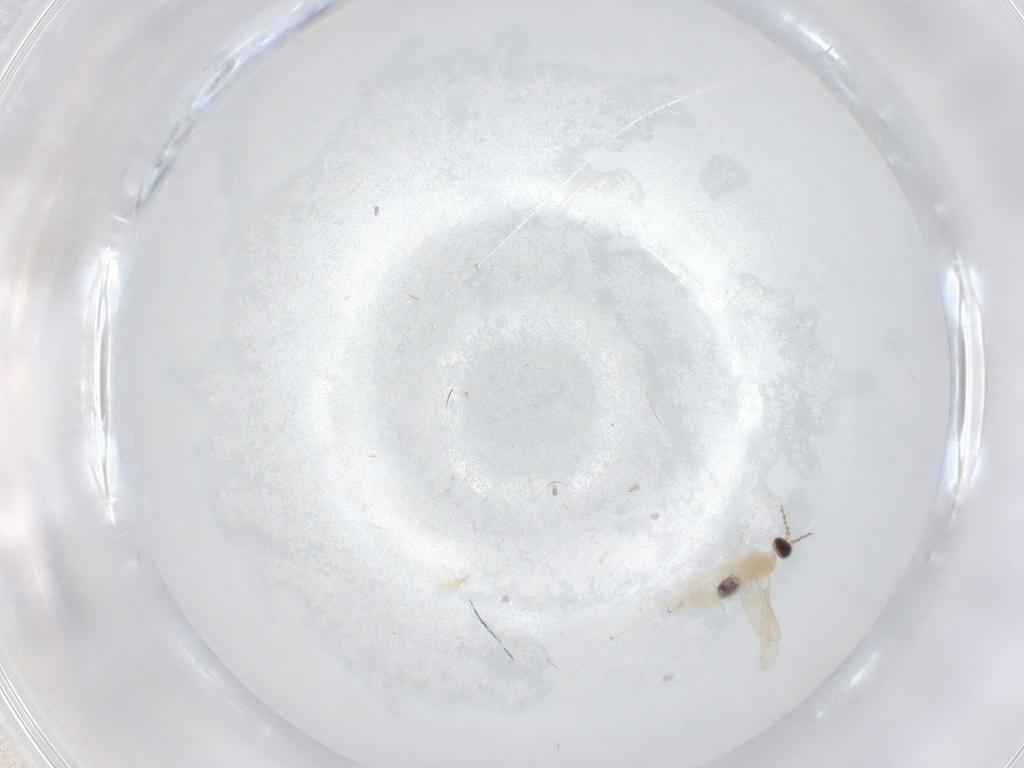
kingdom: Animalia
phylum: Arthropoda
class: Insecta
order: Diptera
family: Cecidomyiidae
